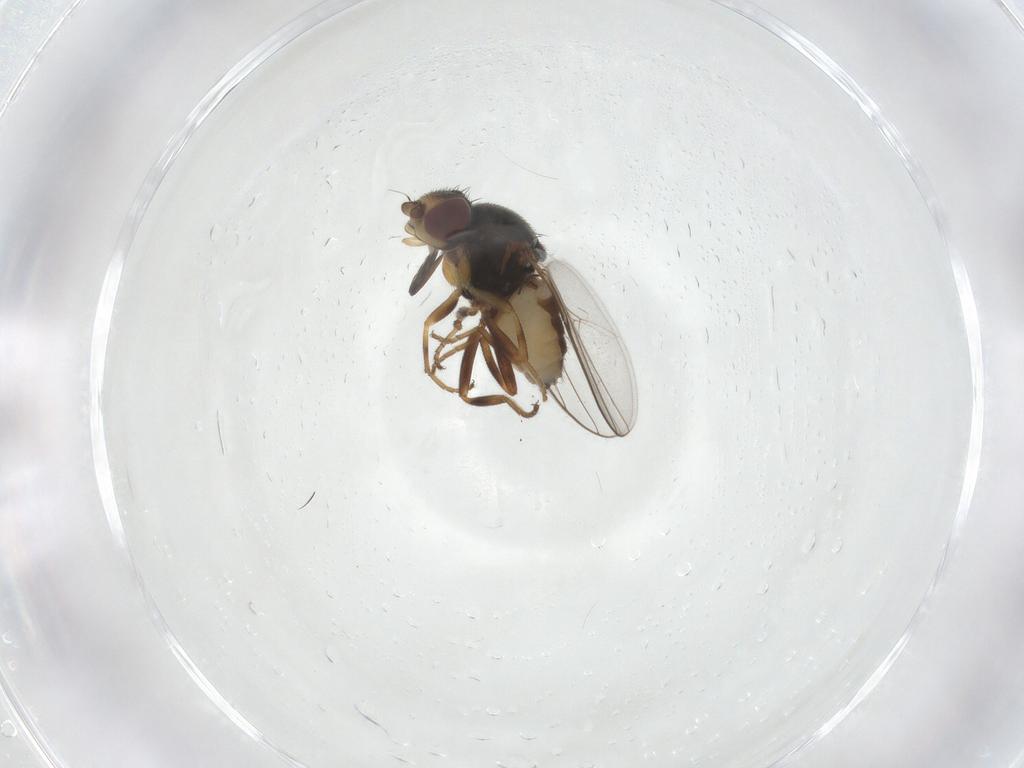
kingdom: Animalia
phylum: Arthropoda
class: Insecta
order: Diptera
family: Chloropidae
